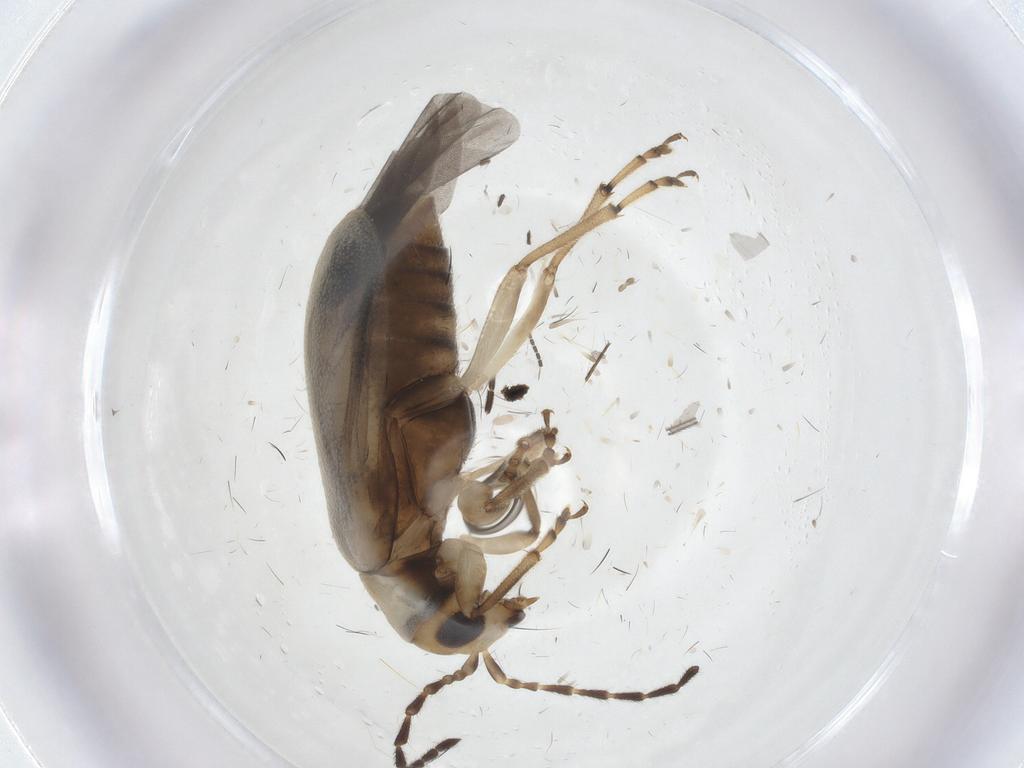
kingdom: Animalia
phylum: Arthropoda
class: Insecta
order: Coleoptera
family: Chrysomelidae
